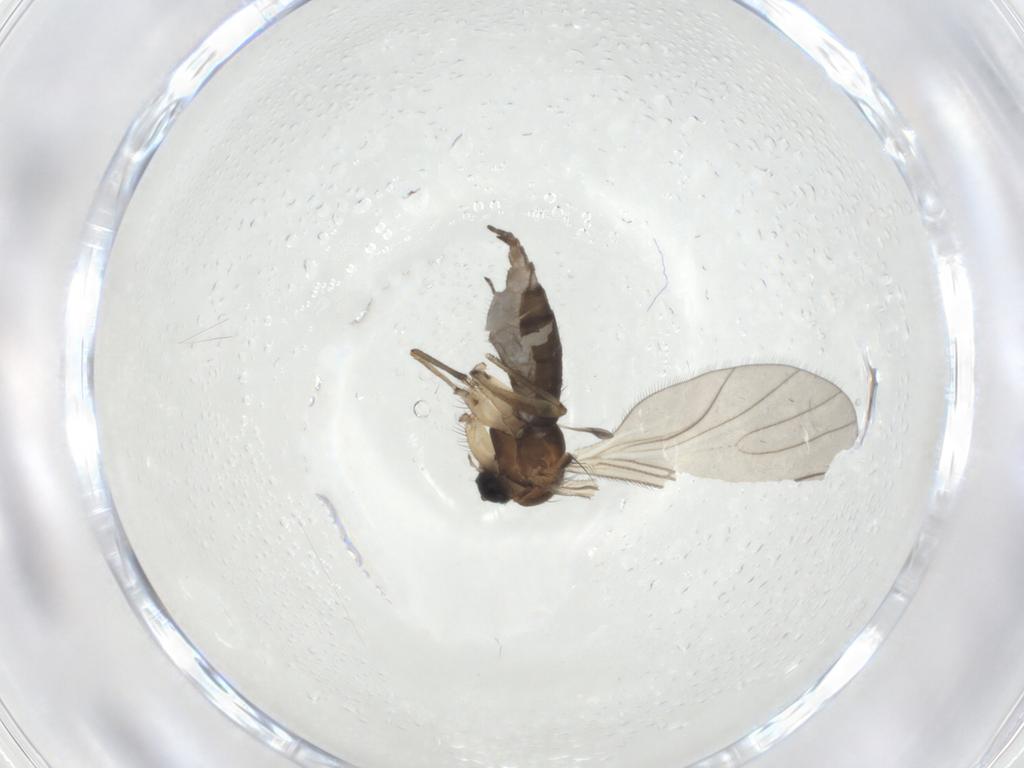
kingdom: Animalia
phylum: Arthropoda
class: Insecta
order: Diptera
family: Sciaridae
